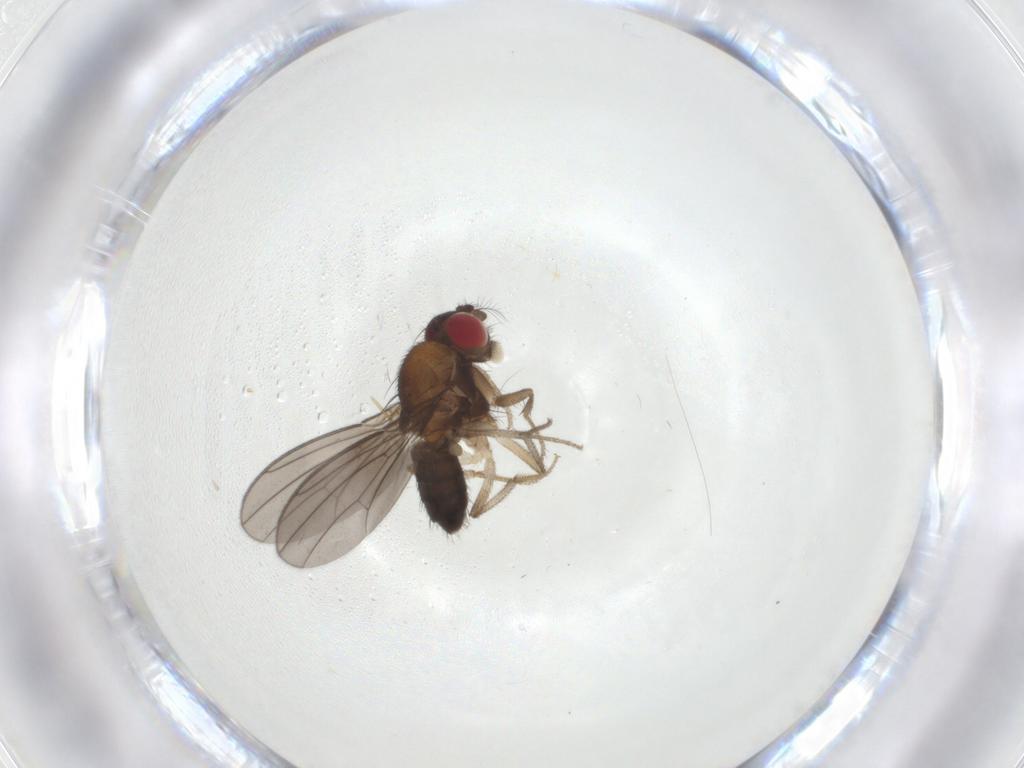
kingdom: Animalia
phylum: Arthropoda
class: Insecta
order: Diptera
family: Drosophilidae
